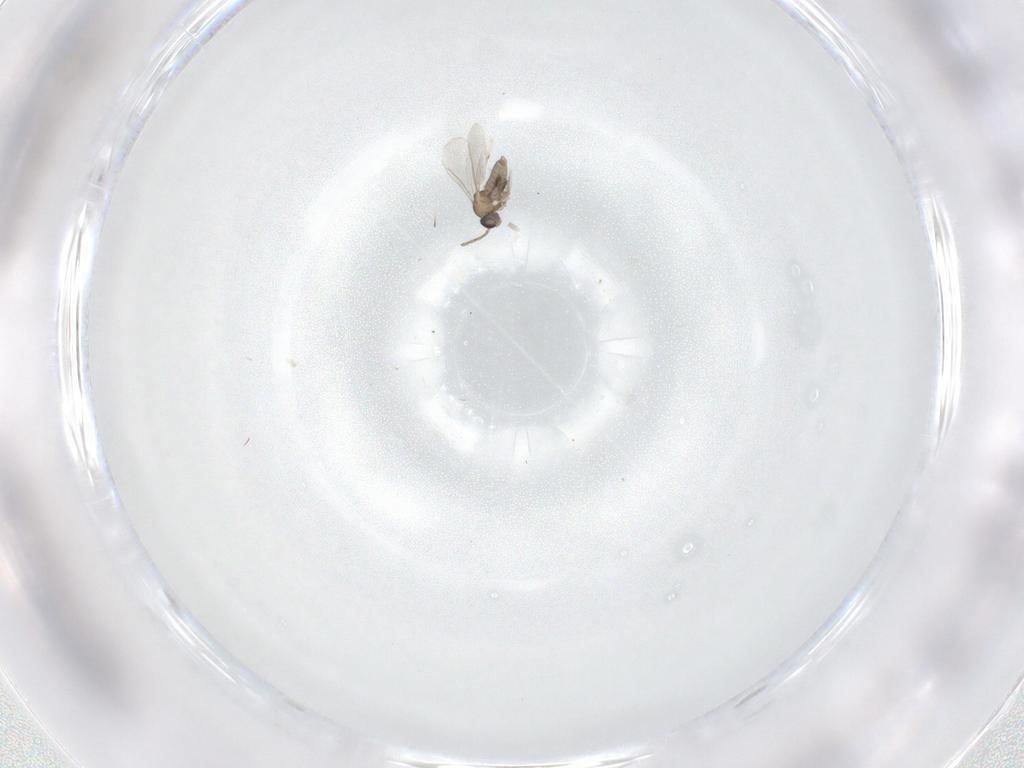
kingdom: Animalia
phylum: Arthropoda
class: Insecta
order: Diptera
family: Cecidomyiidae
